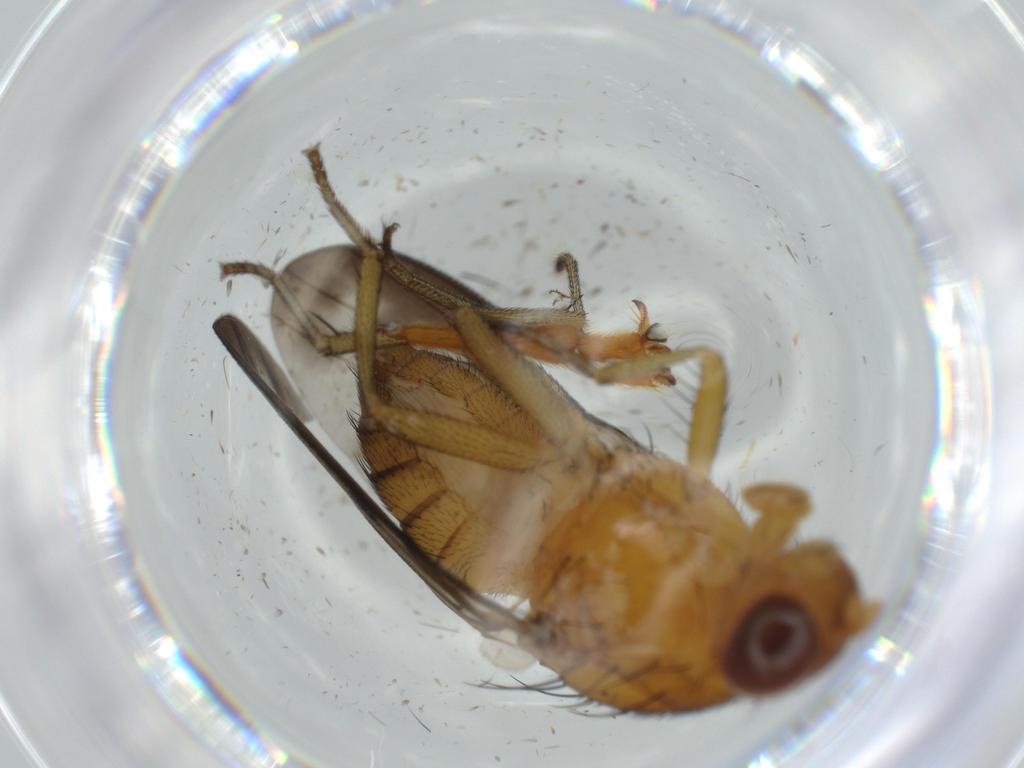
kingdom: Animalia
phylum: Arthropoda
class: Insecta
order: Diptera
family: Psychodidae
